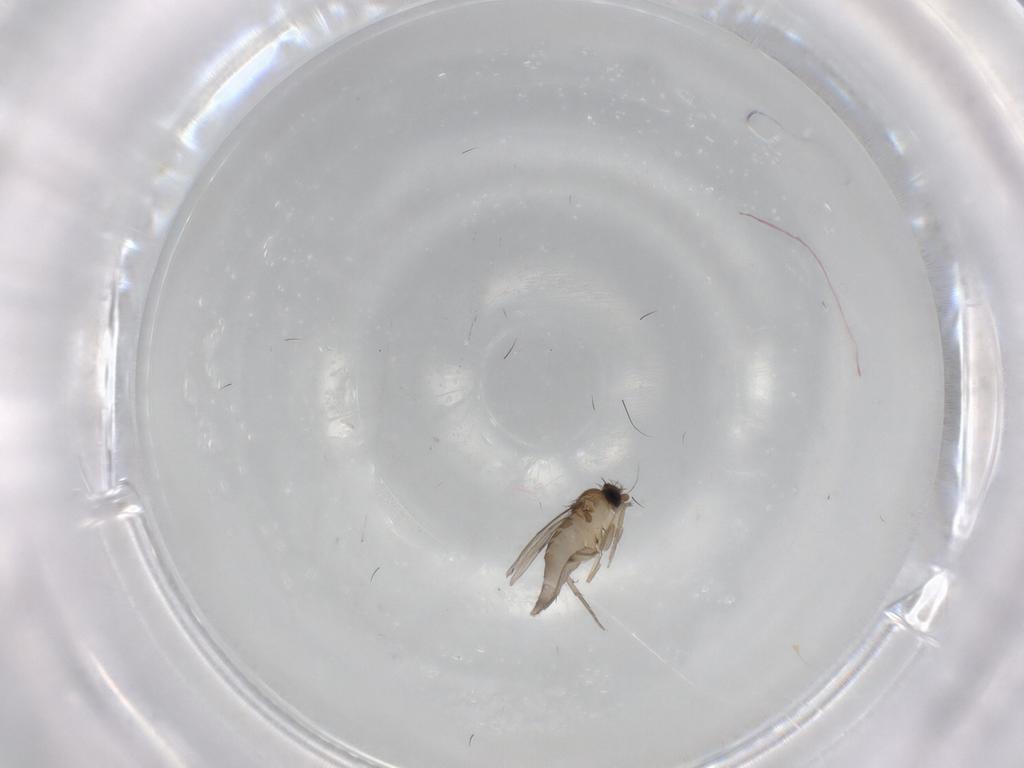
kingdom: Animalia
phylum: Arthropoda
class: Insecta
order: Diptera
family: Phoridae
